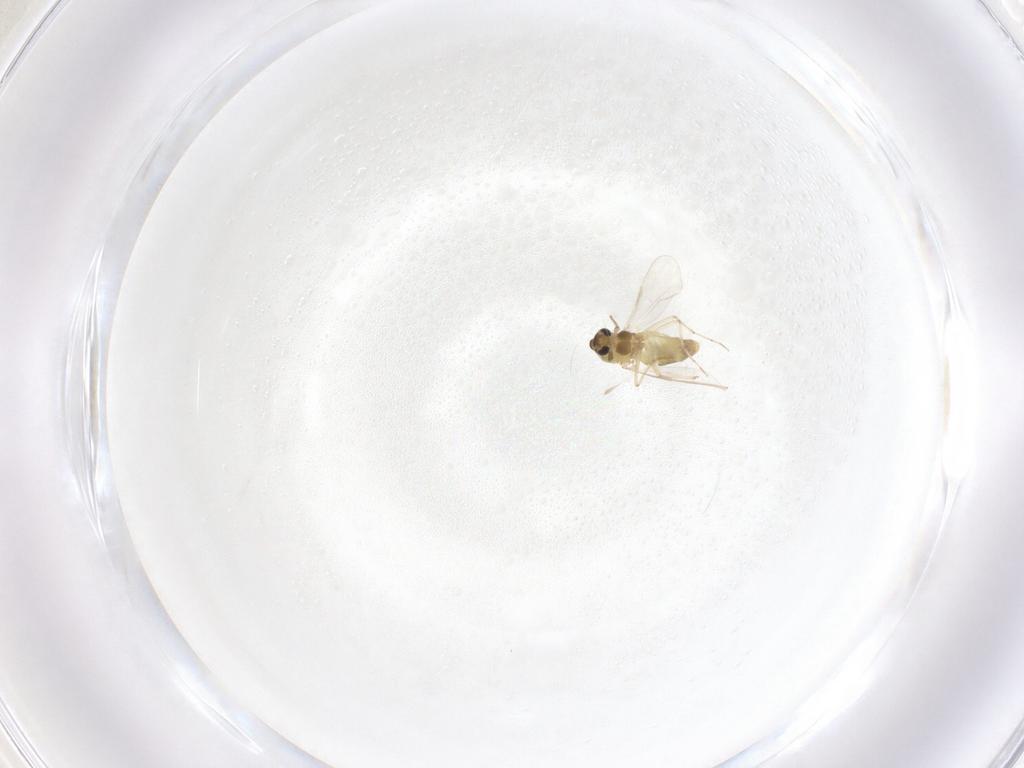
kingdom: Animalia
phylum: Arthropoda
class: Insecta
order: Diptera
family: Chironomidae
